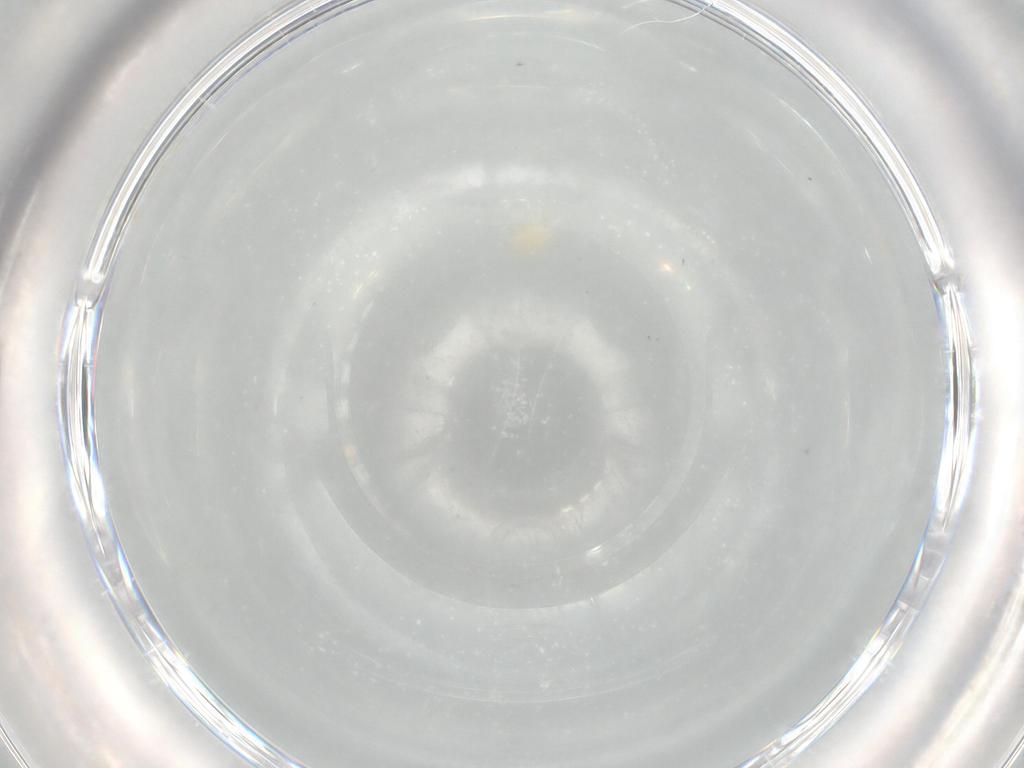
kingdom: Animalia
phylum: Arthropoda
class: Arachnida
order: Trombidiformes
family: Tetranychidae
